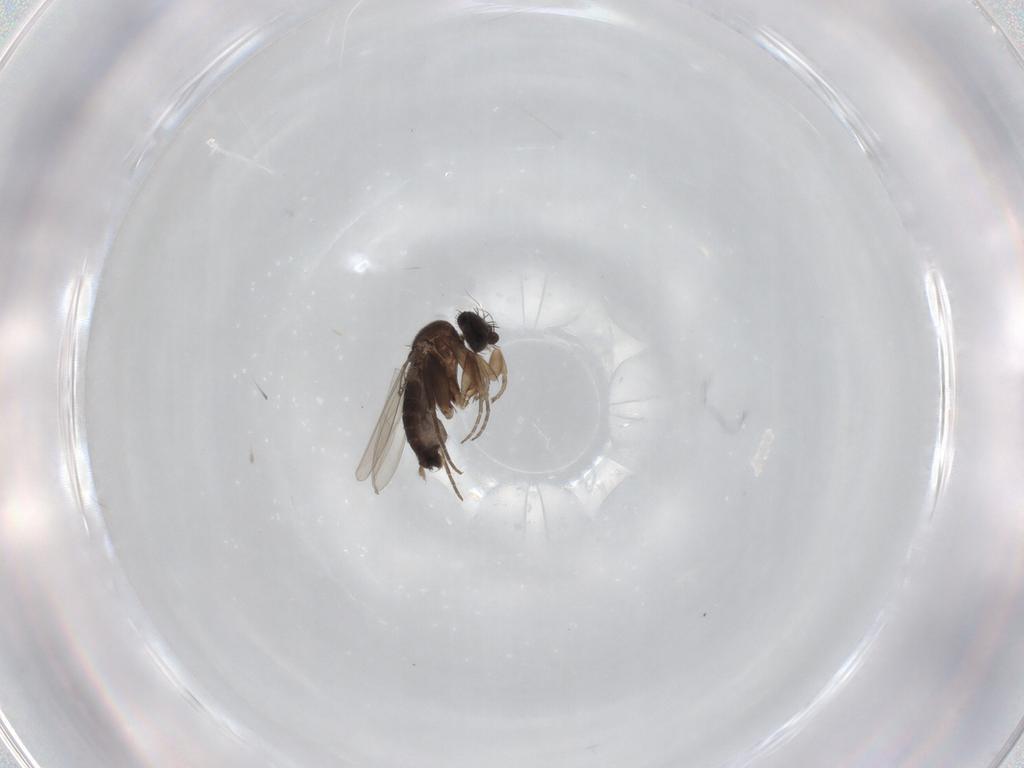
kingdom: Animalia
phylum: Arthropoda
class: Insecta
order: Diptera
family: Phoridae
